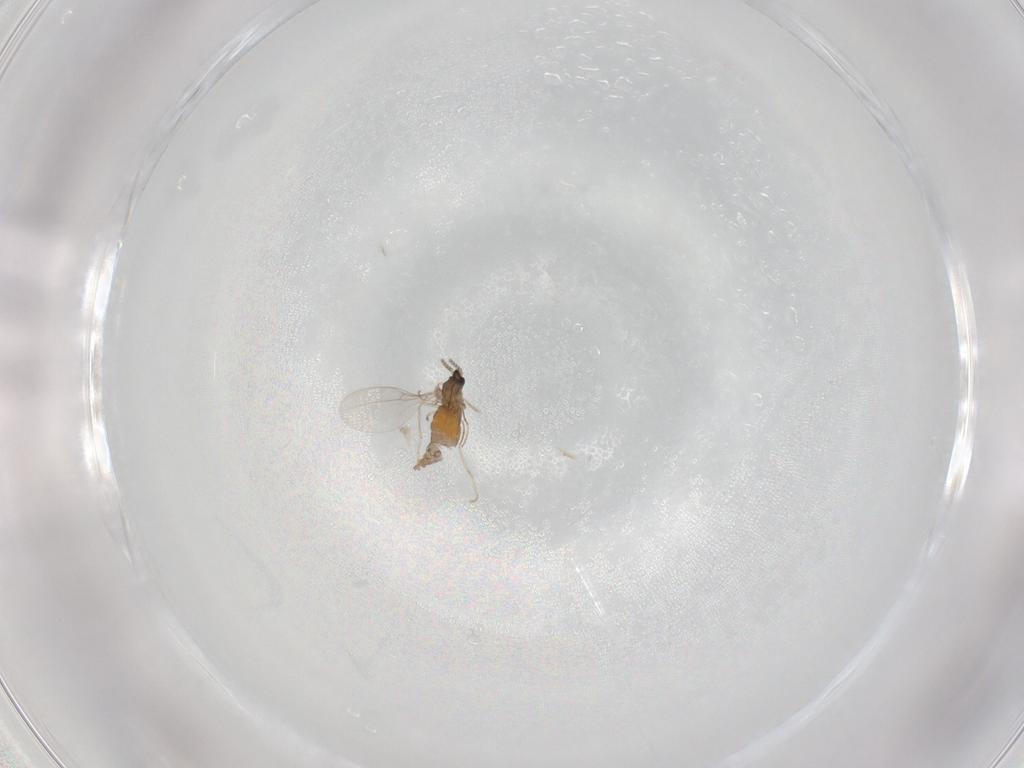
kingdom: Animalia
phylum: Arthropoda
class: Insecta
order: Diptera
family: Cecidomyiidae
